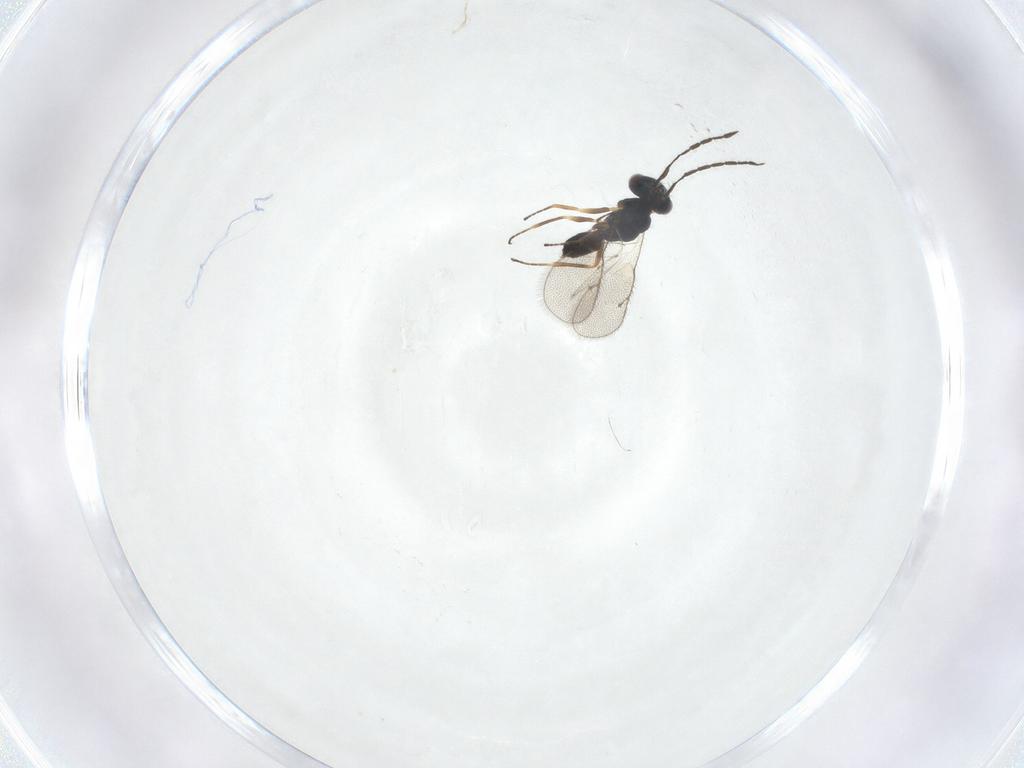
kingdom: Animalia
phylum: Arthropoda
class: Insecta
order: Hymenoptera
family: Pteromalidae
